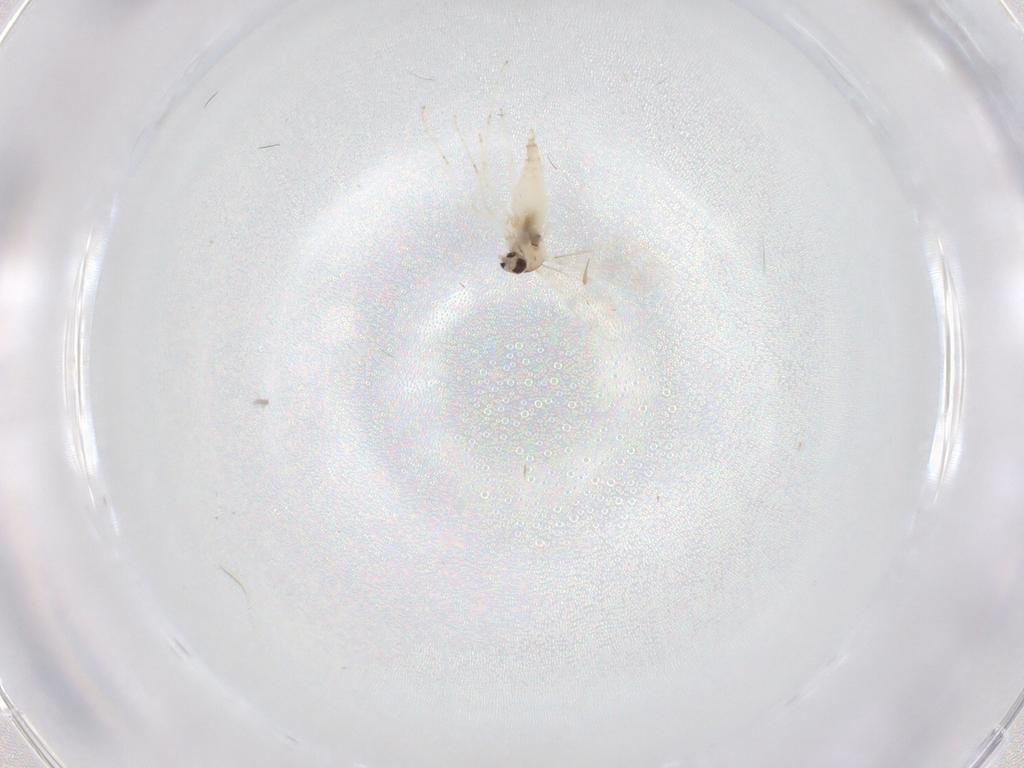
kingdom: Animalia
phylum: Arthropoda
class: Insecta
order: Diptera
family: Cecidomyiidae
